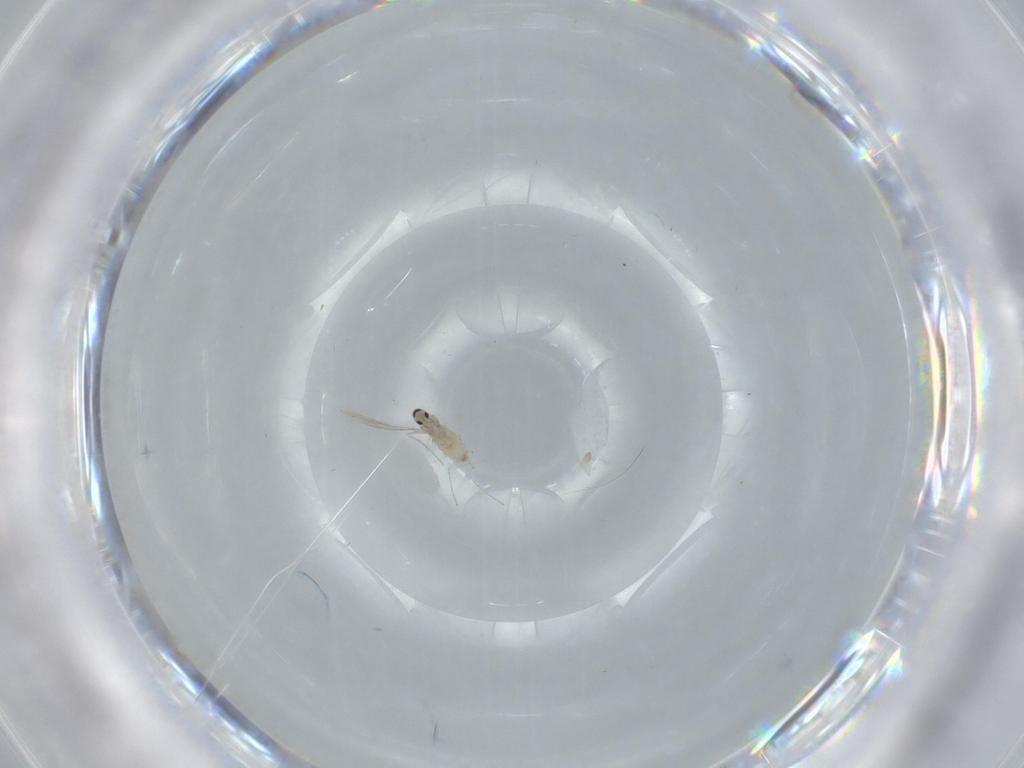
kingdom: Animalia
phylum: Arthropoda
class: Insecta
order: Diptera
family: Cecidomyiidae
